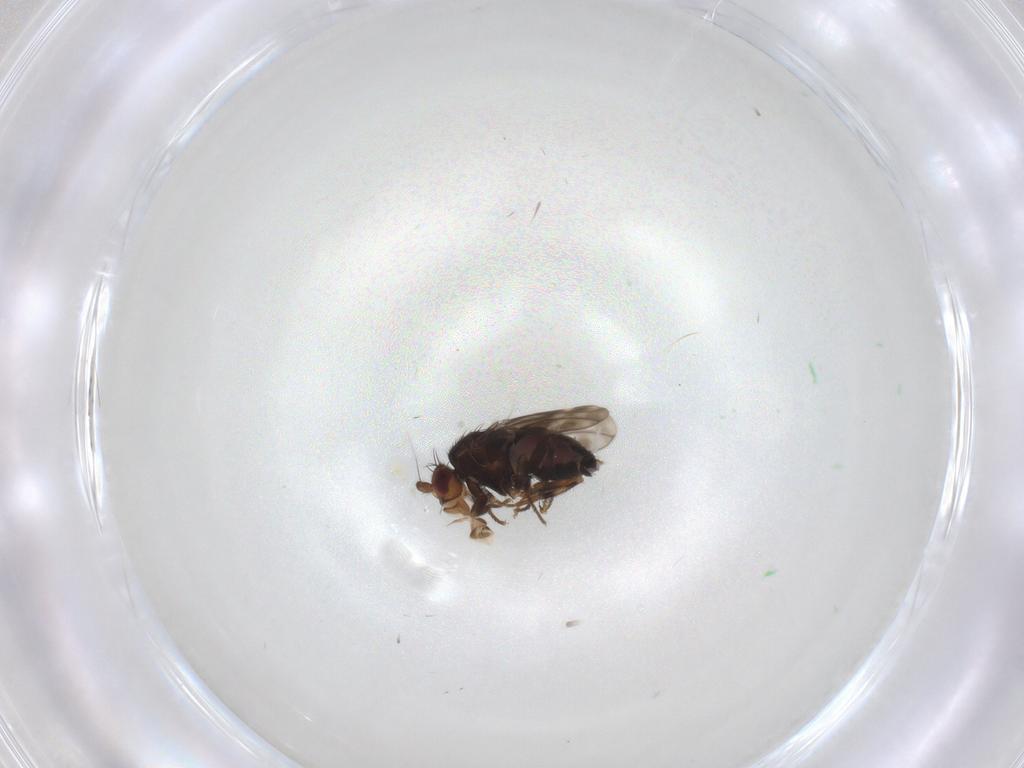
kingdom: Animalia
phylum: Arthropoda
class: Insecta
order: Diptera
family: Sphaeroceridae
